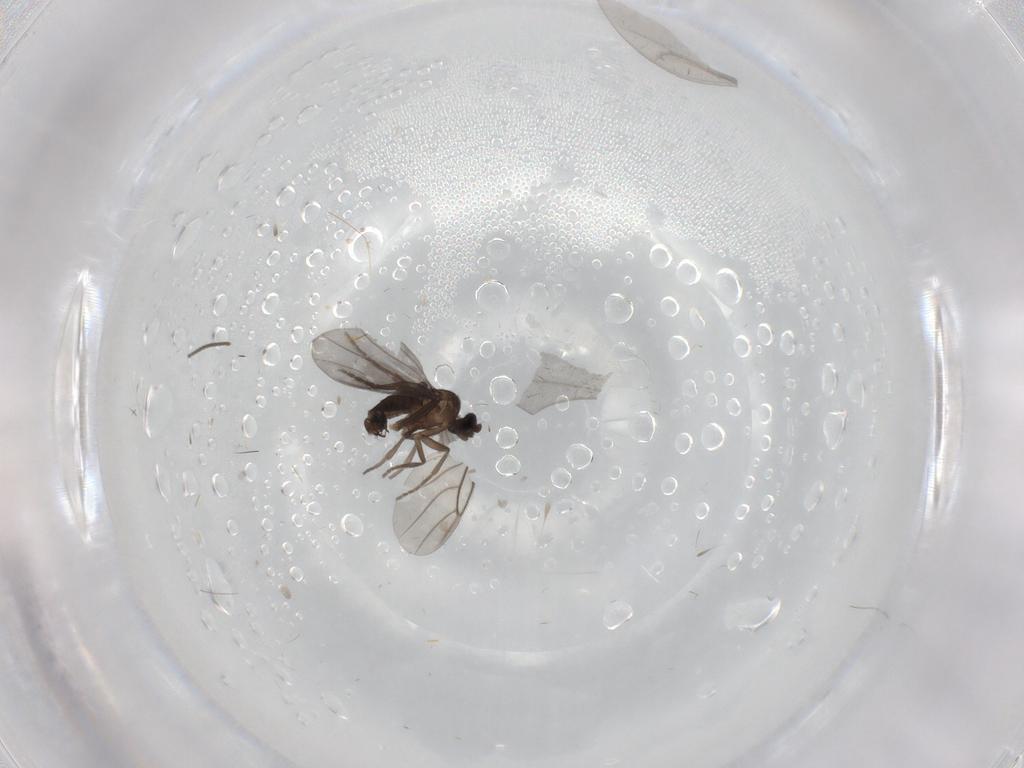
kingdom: Animalia
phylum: Arthropoda
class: Insecta
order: Diptera
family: Phoridae
